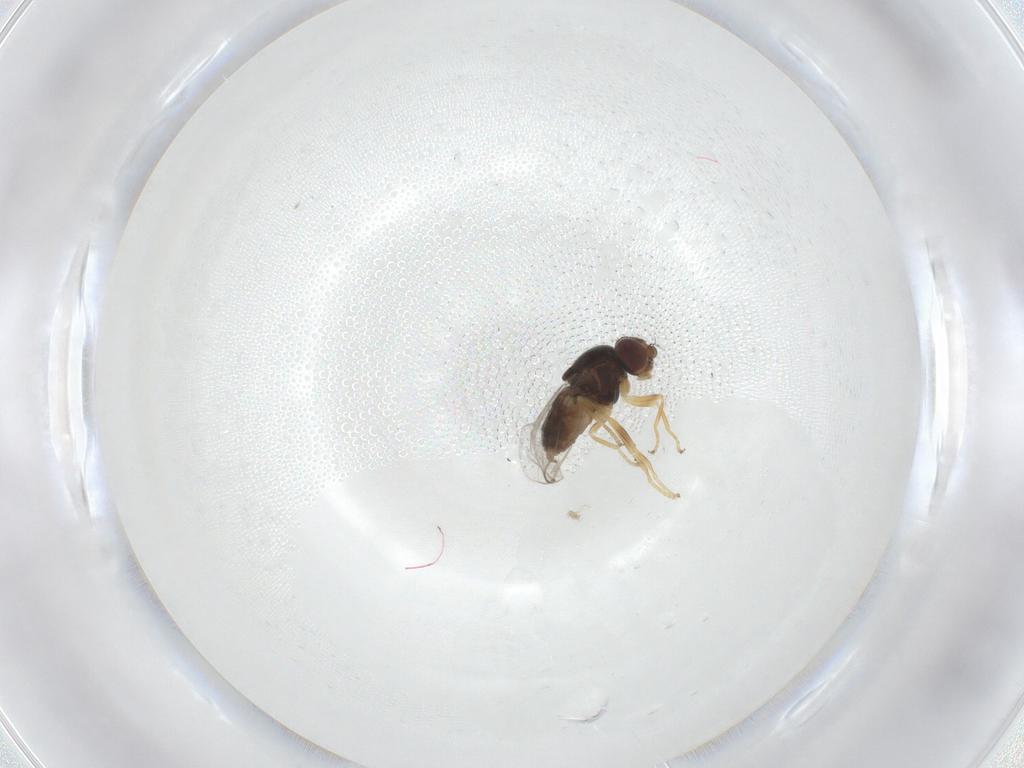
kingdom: Animalia
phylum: Arthropoda
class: Insecta
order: Diptera
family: Chloropidae
